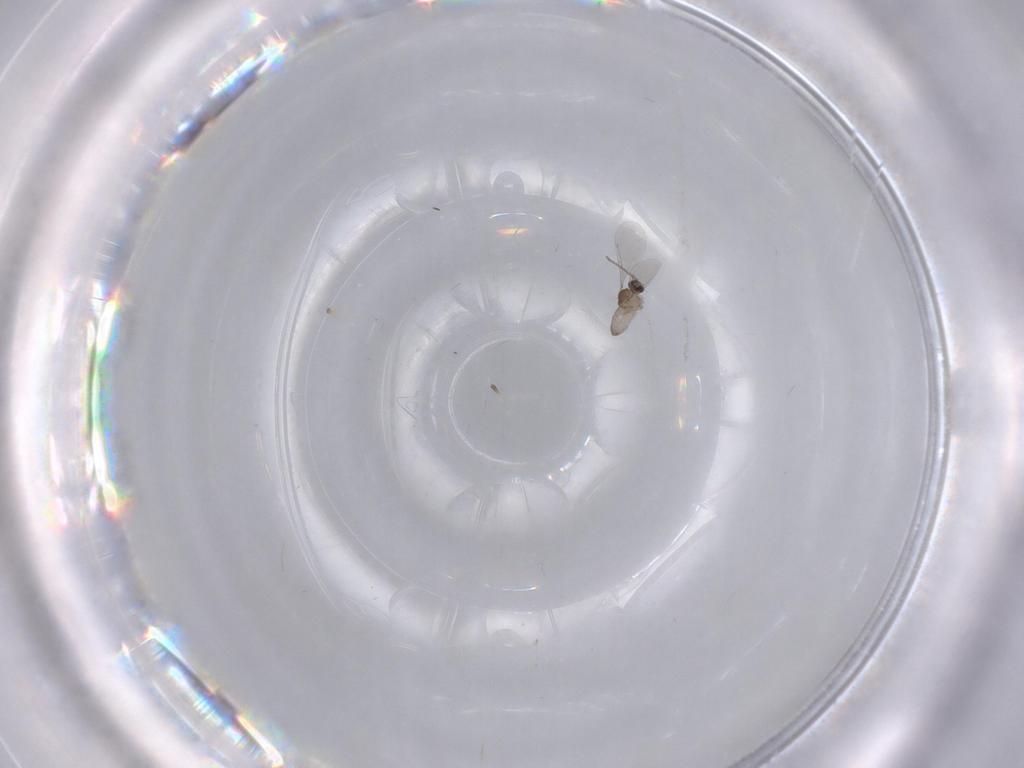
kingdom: Animalia
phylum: Arthropoda
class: Insecta
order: Diptera
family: Cecidomyiidae
